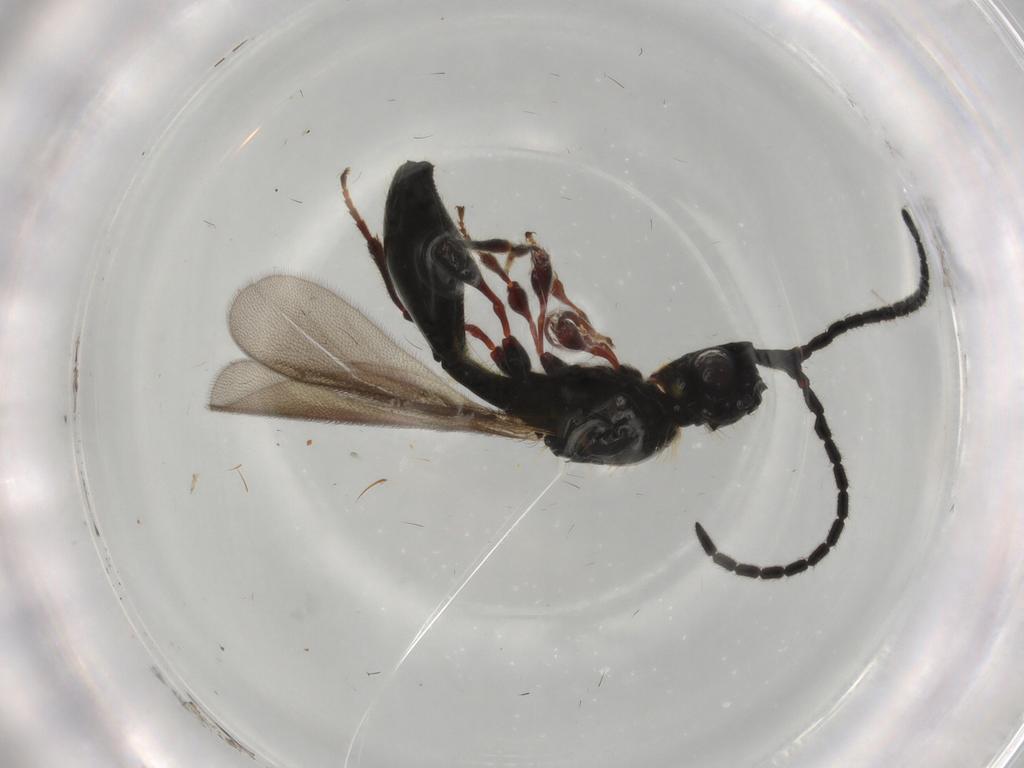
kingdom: Animalia
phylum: Arthropoda
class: Insecta
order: Hymenoptera
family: Diapriidae
